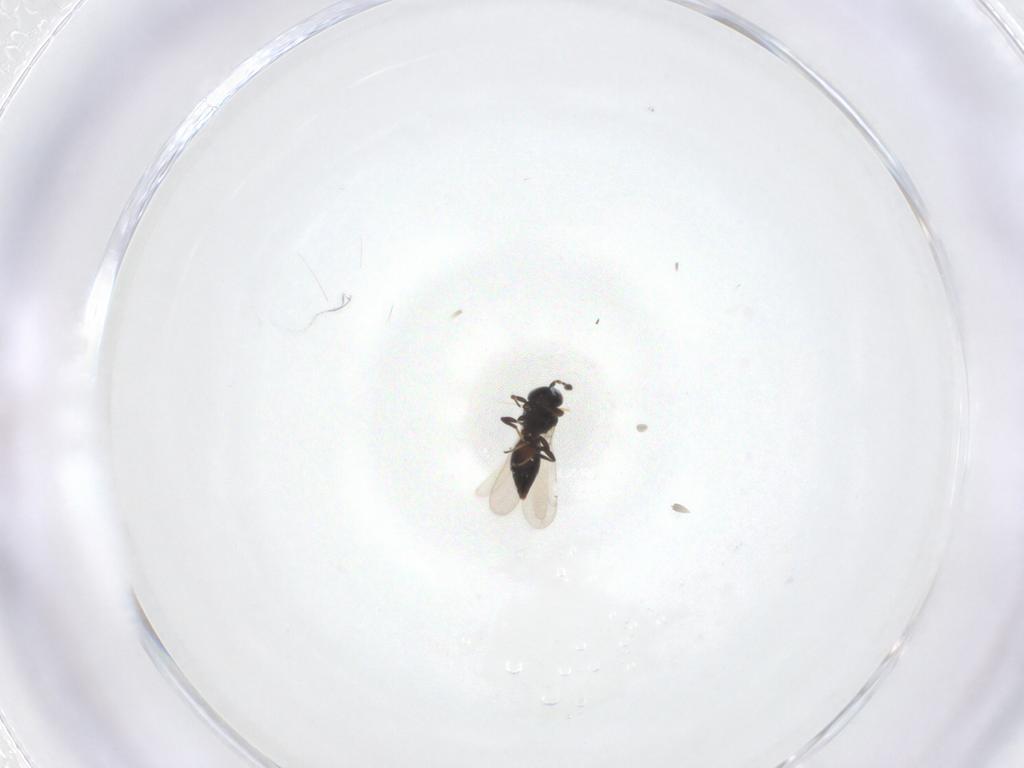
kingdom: Animalia
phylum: Arthropoda
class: Insecta
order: Hymenoptera
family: Platygastridae
